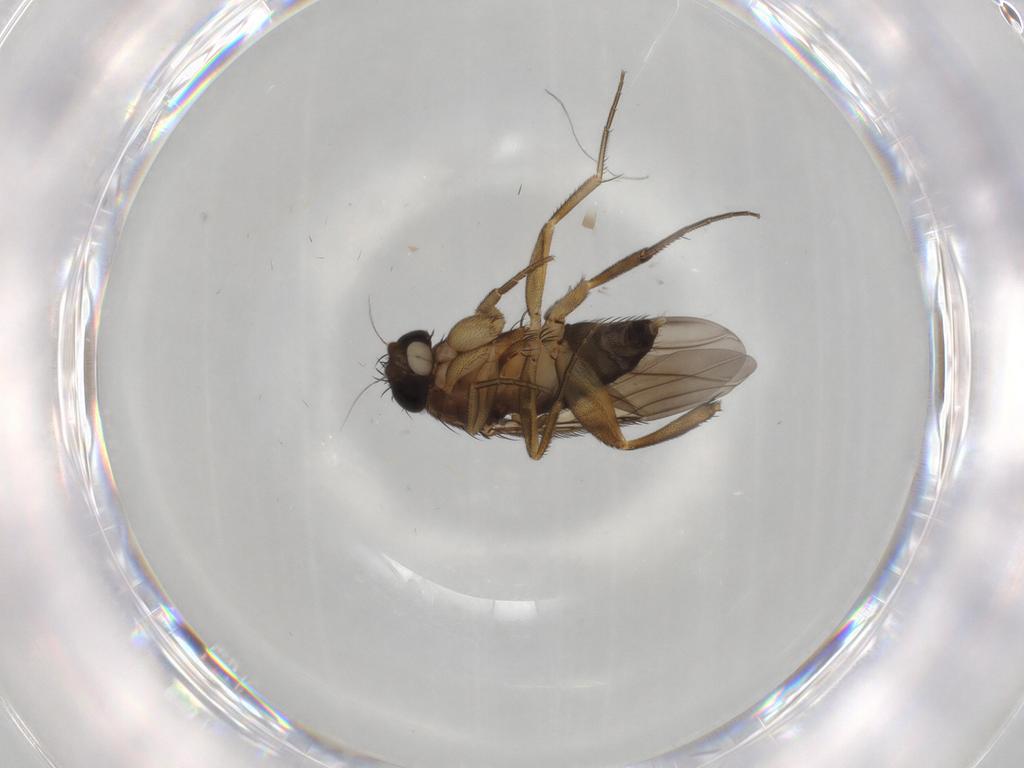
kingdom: Animalia
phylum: Arthropoda
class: Insecta
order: Diptera
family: Phoridae
